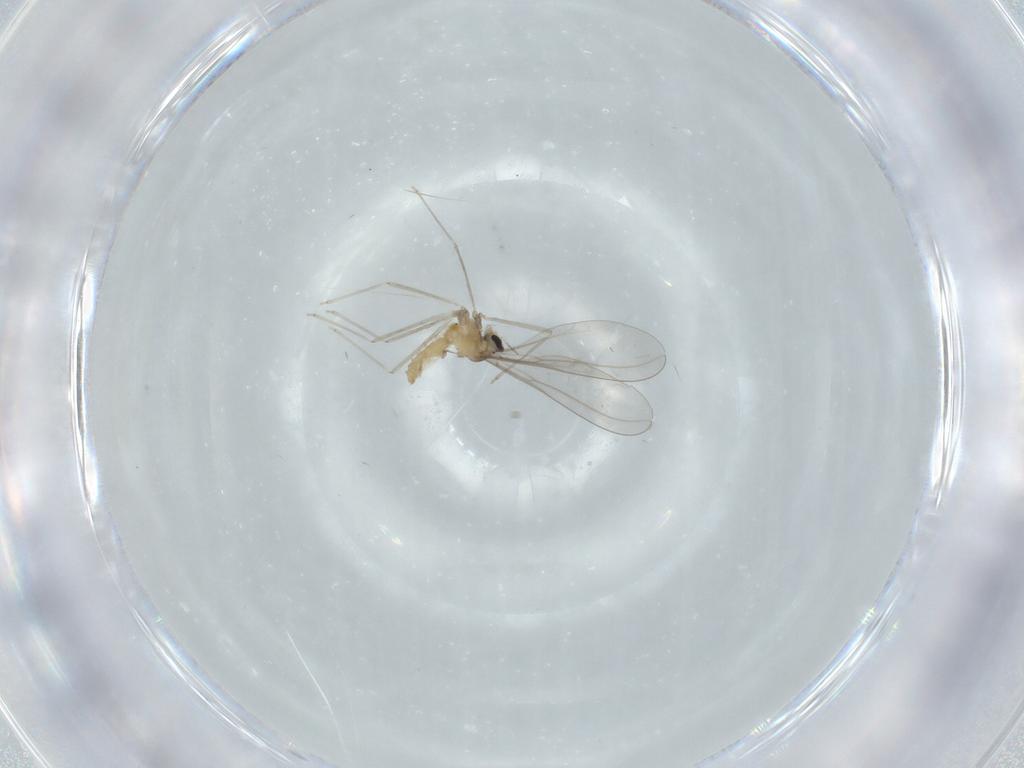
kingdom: Animalia
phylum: Arthropoda
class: Insecta
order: Diptera
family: Cecidomyiidae
